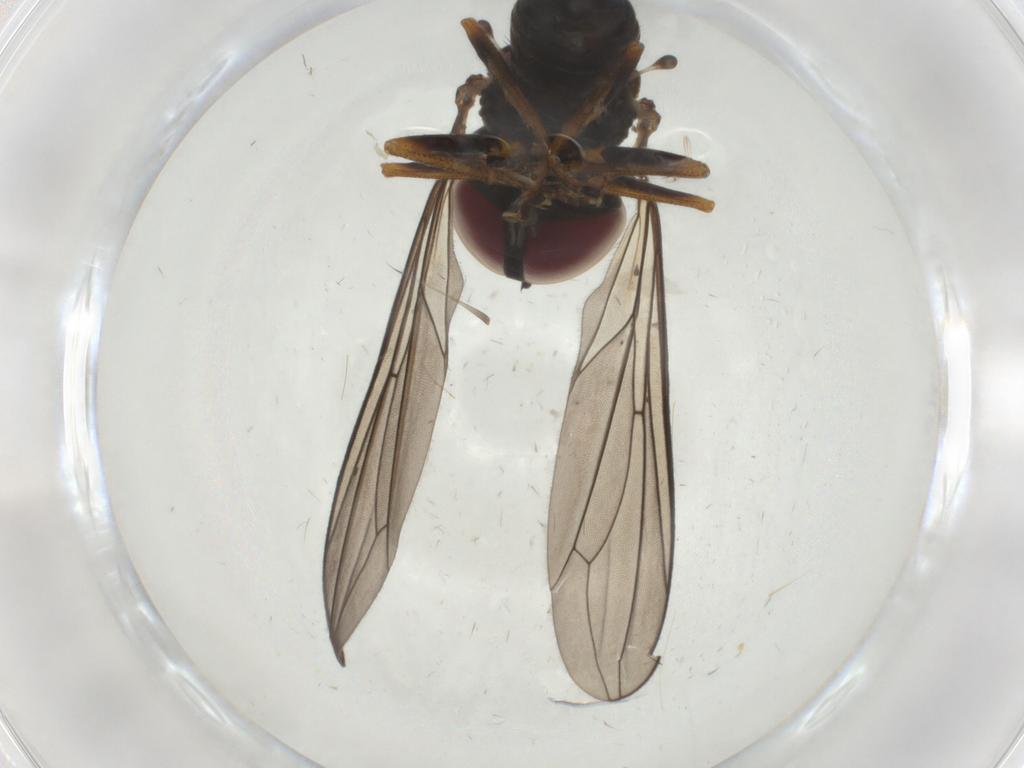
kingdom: Animalia
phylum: Arthropoda
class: Insecta
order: Diptera
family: Pipunculidae
